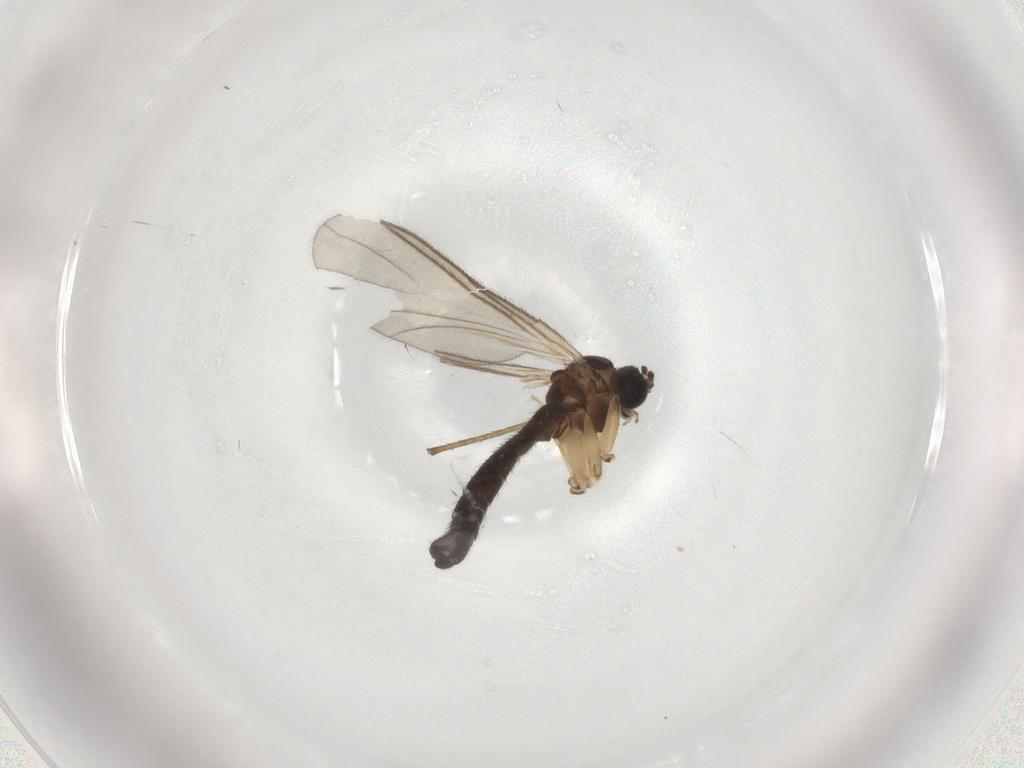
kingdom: Animalia
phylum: Arthropoda
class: Insecta
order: Diptera
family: Sciaridae
